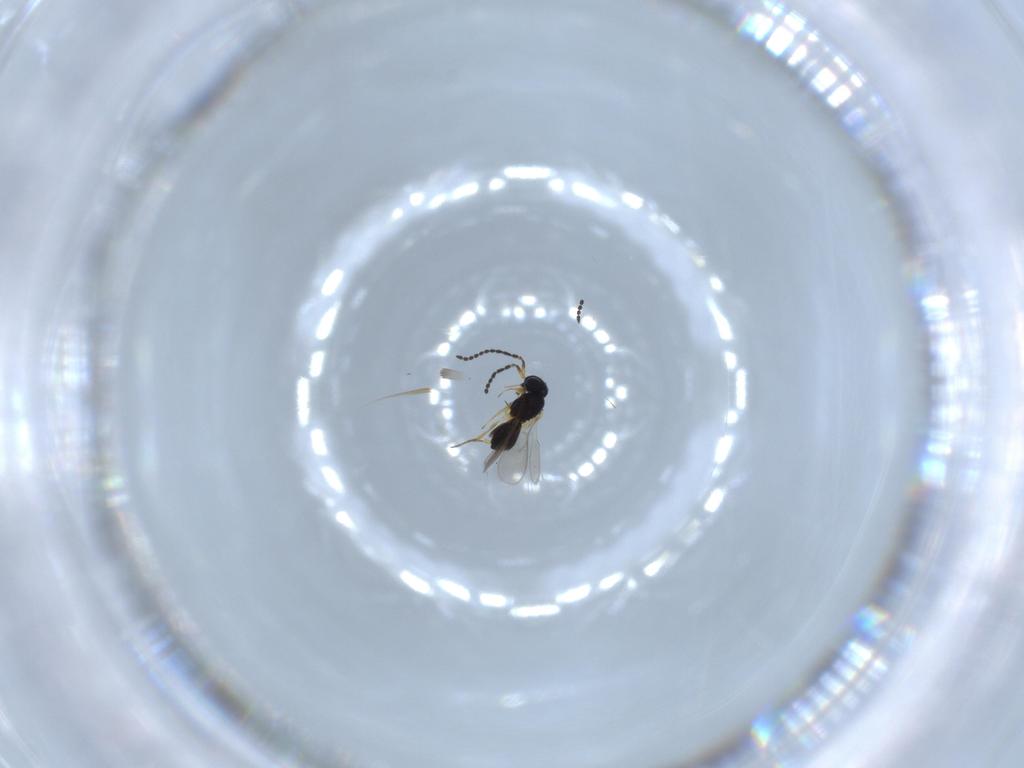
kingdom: Animalia
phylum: Arthropoda
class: Insecta
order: Hymenoptera
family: Scelionidae
